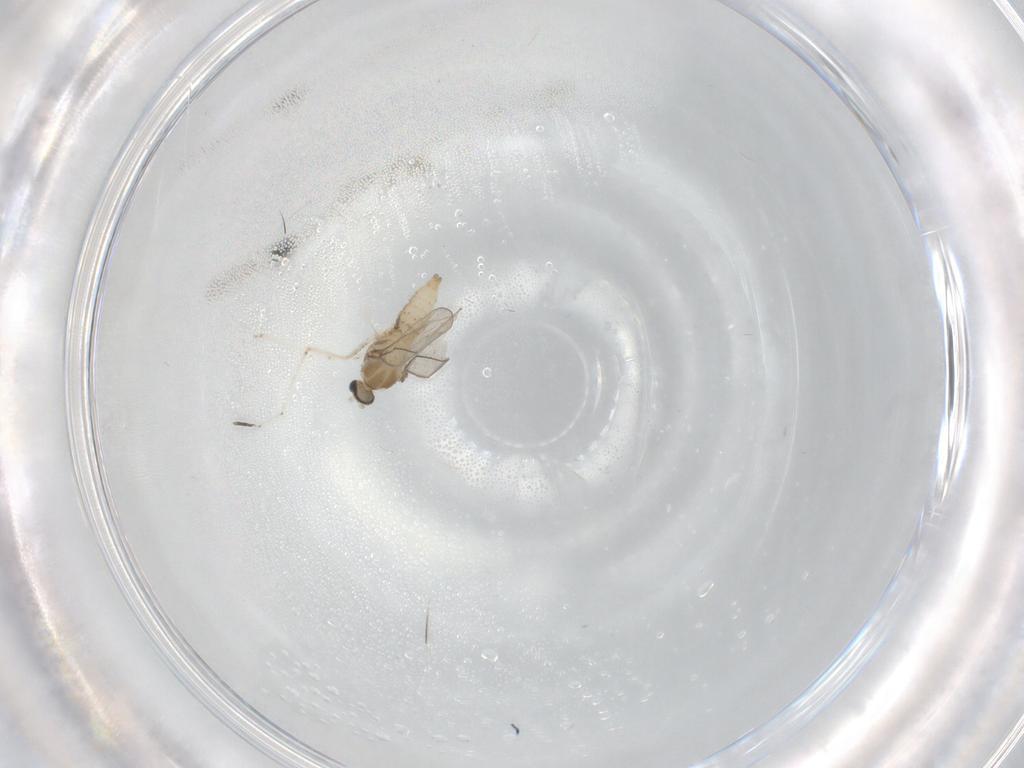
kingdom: Animalia
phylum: Arthropoda
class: Insecta
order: Diptera
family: Cecidomyiidae
